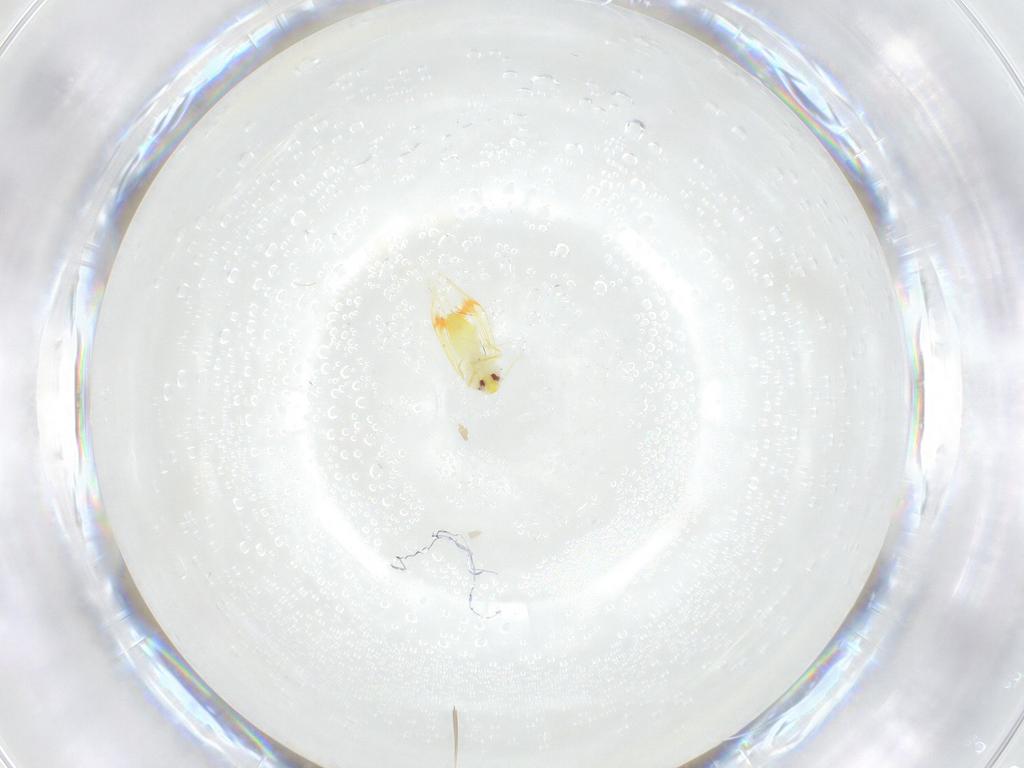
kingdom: Animalia
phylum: Arthropoda
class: Insecta
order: Hemiptera
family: Aleyrodidae
